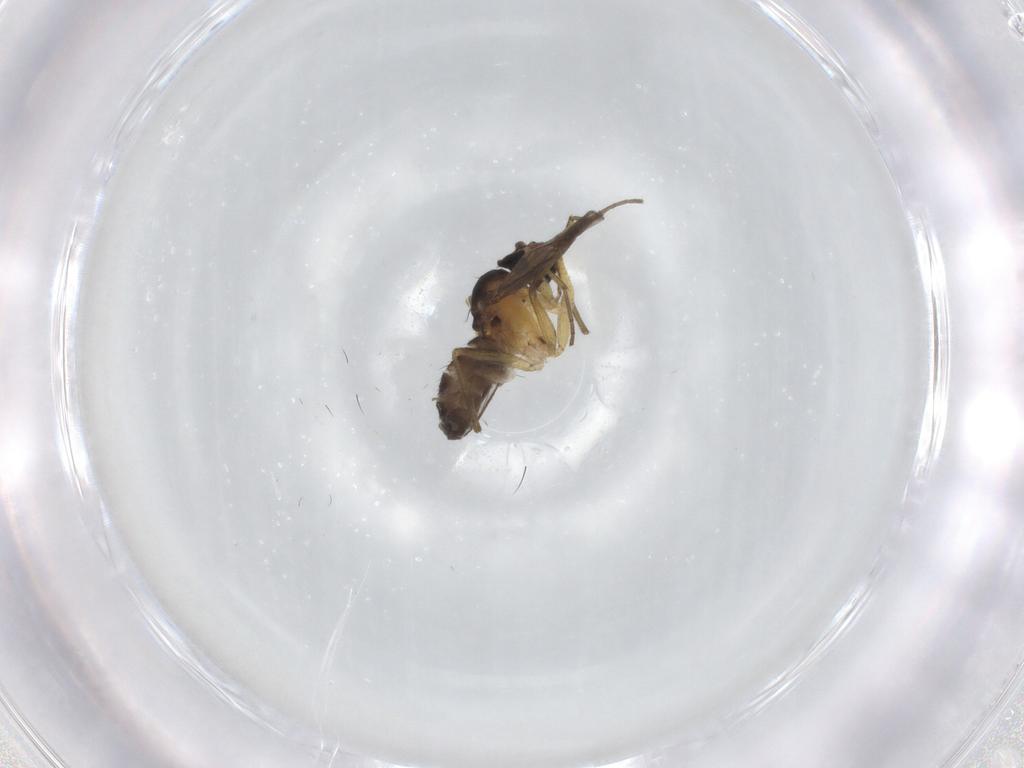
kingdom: Animalia
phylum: Arthropoda
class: Insecta
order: Diptera
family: Dolichopodidae
